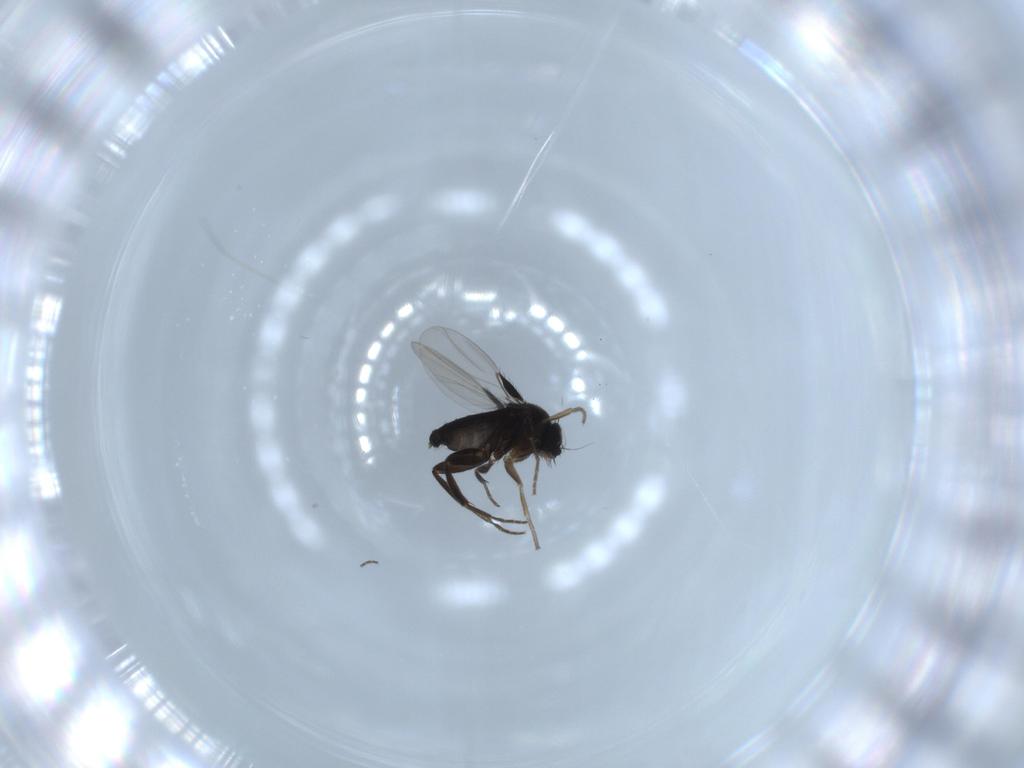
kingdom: Animalia
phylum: Arthropoda
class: Insecta
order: Diptera
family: Phoridae
